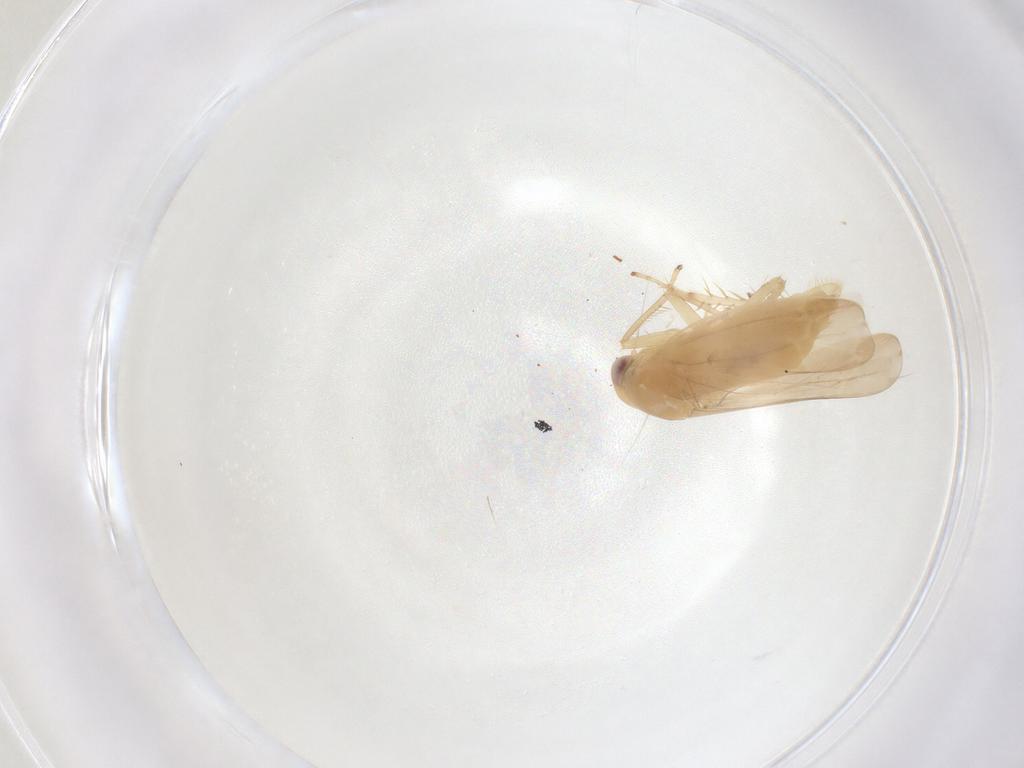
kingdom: Animalia
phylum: Arthropoda
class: Insecta
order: Hemiptera
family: Cicadellidae
